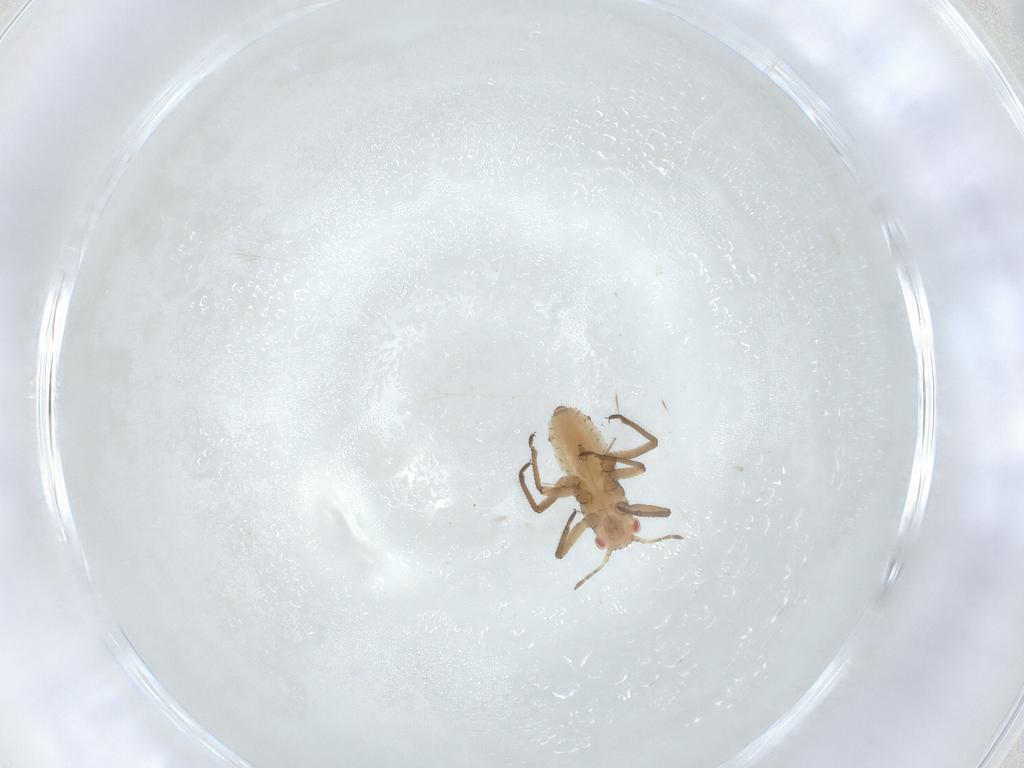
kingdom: Animalia
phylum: Arthropoda
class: Insecta
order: Hemiptera
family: Lachnidae
